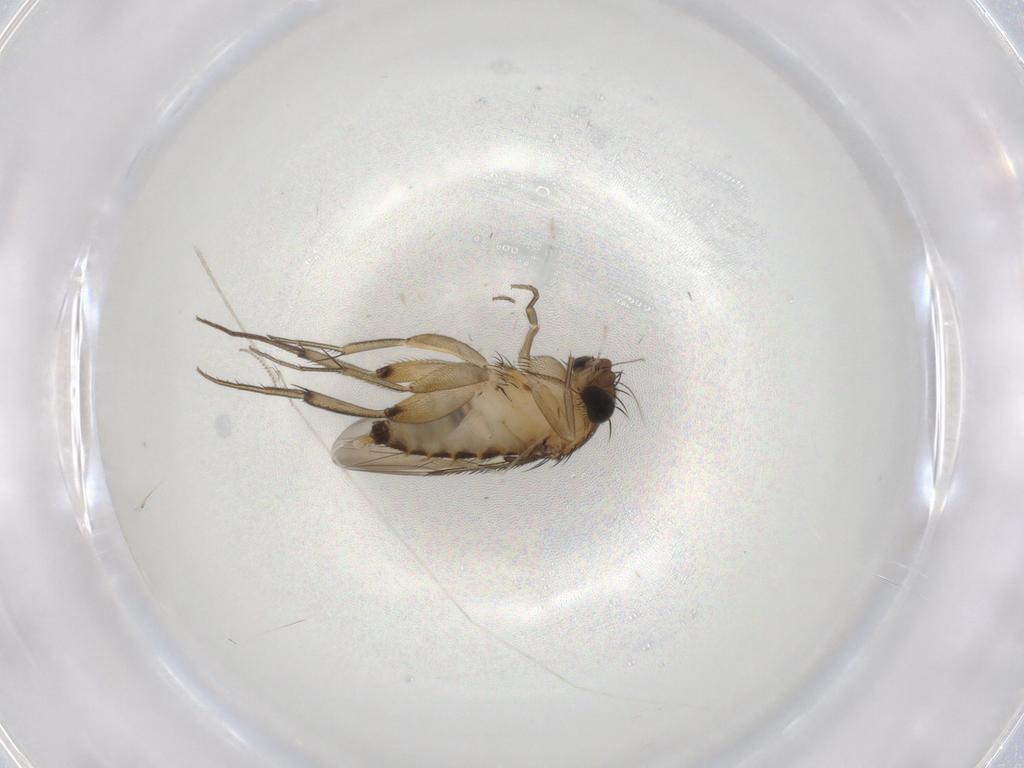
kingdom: Animalia
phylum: Arthropoda
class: Insecta
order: Diptera
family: Phoridae
